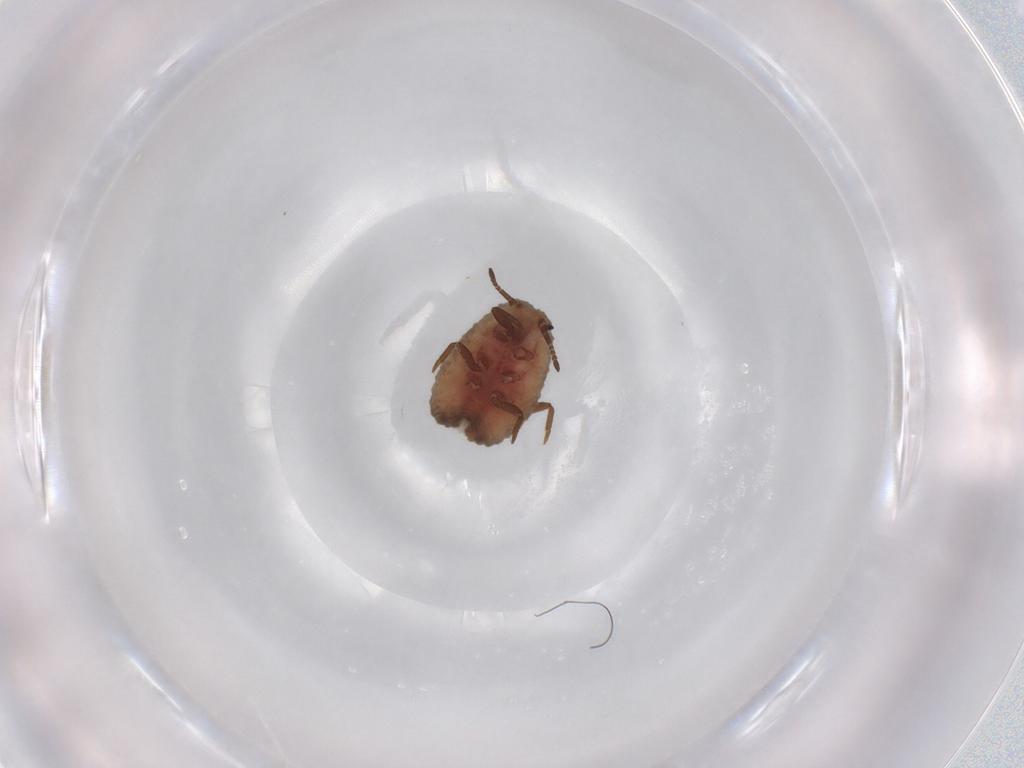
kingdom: Animalia
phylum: Arthropoda
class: Insecta
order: Hemiptera
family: Putoidae
